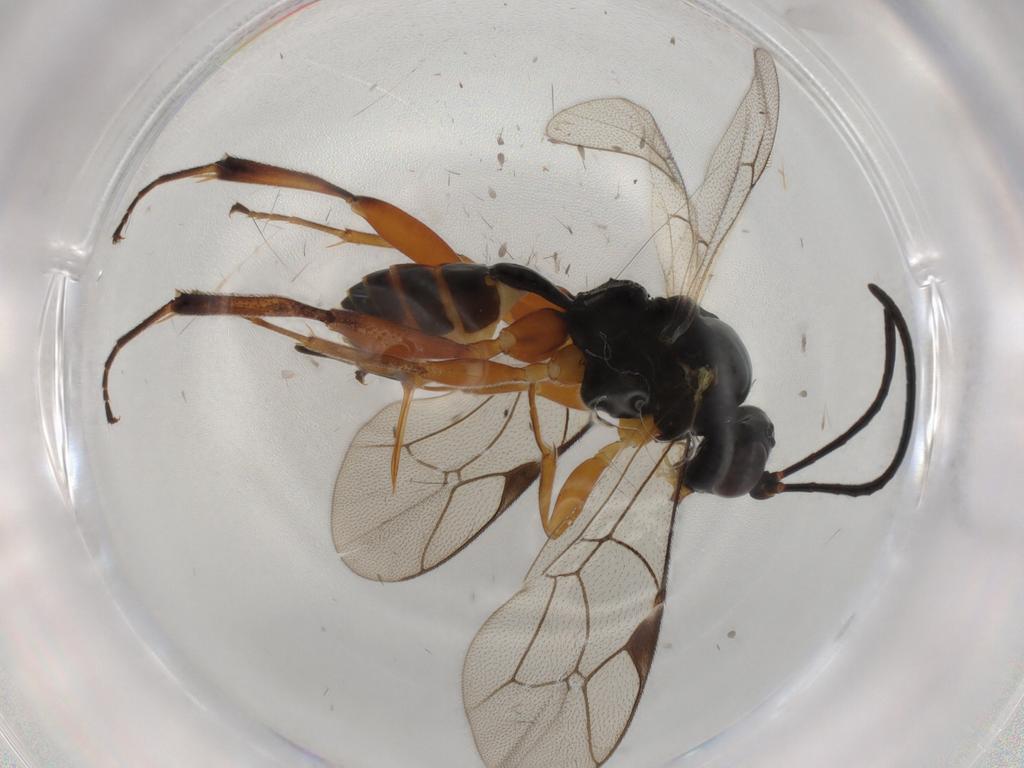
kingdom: Animalia
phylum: Arthropoda
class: Insecta
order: Hymenoptera
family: Ichneumonidae
